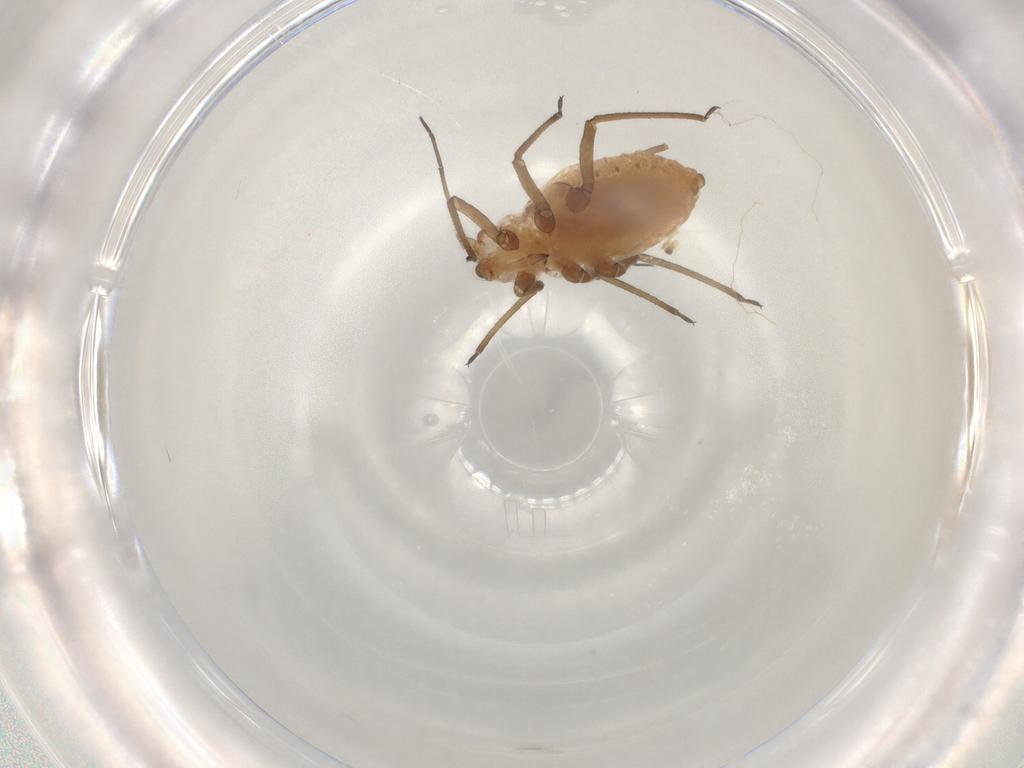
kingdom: Animalia
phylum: Arthropoda
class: Insecta
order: Hemiptera
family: Aphididae
